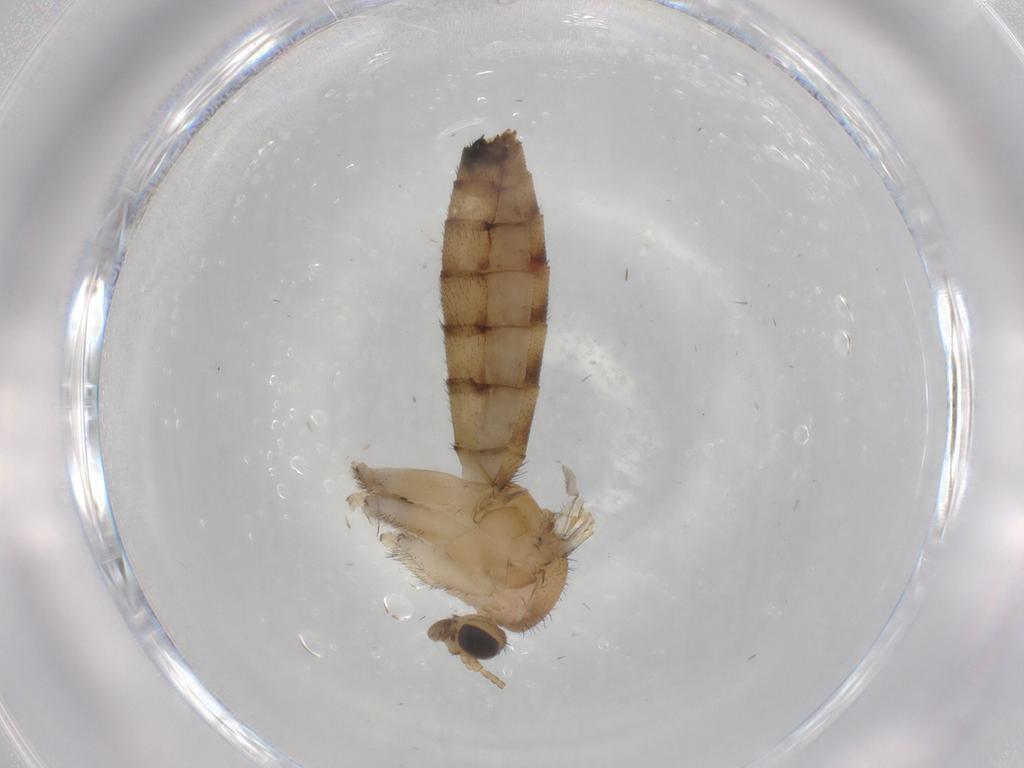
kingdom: Animalia
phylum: Arthropoda
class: Insecta
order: Diptera
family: Keroplatidae
